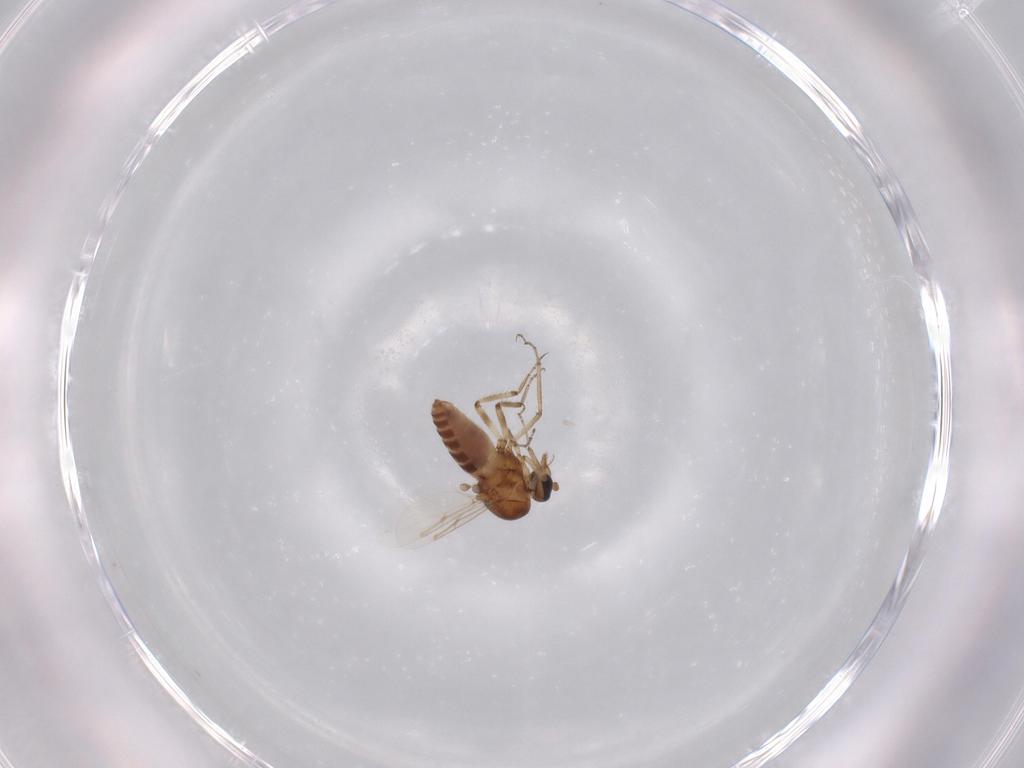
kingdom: Animalia
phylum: Arthropoda
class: Insecta
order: Diptera
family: Ceratopogonidae
